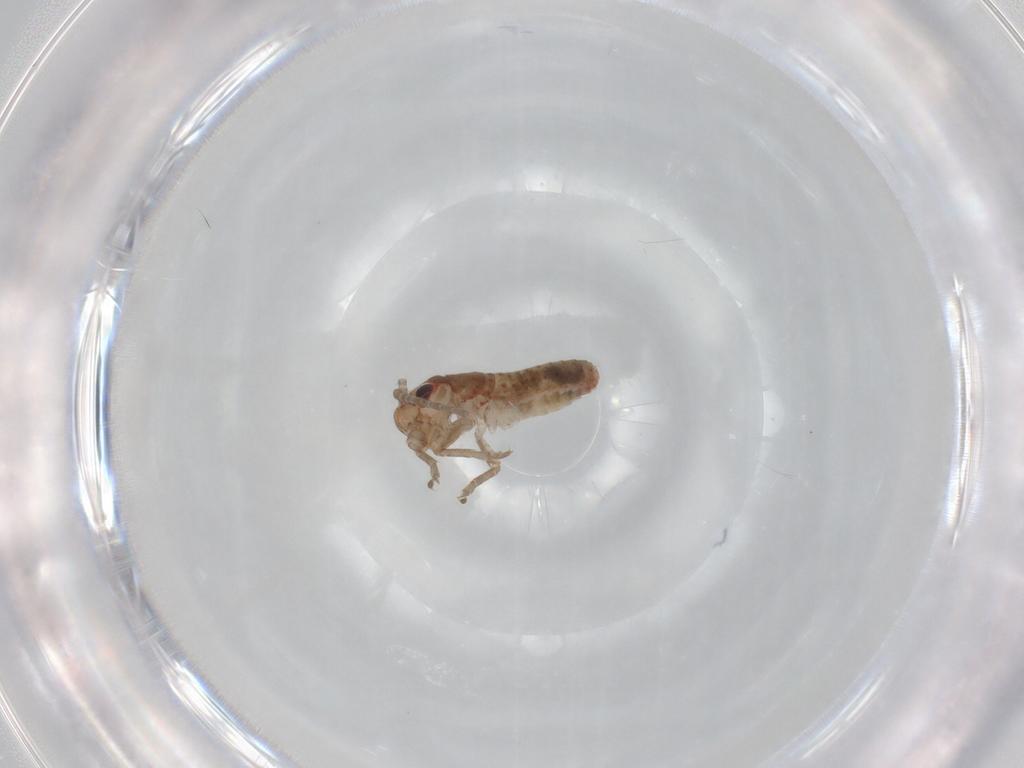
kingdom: Animalia
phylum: Arthropoda
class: Insecta
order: Orthoptera
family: Mogoplistidae
